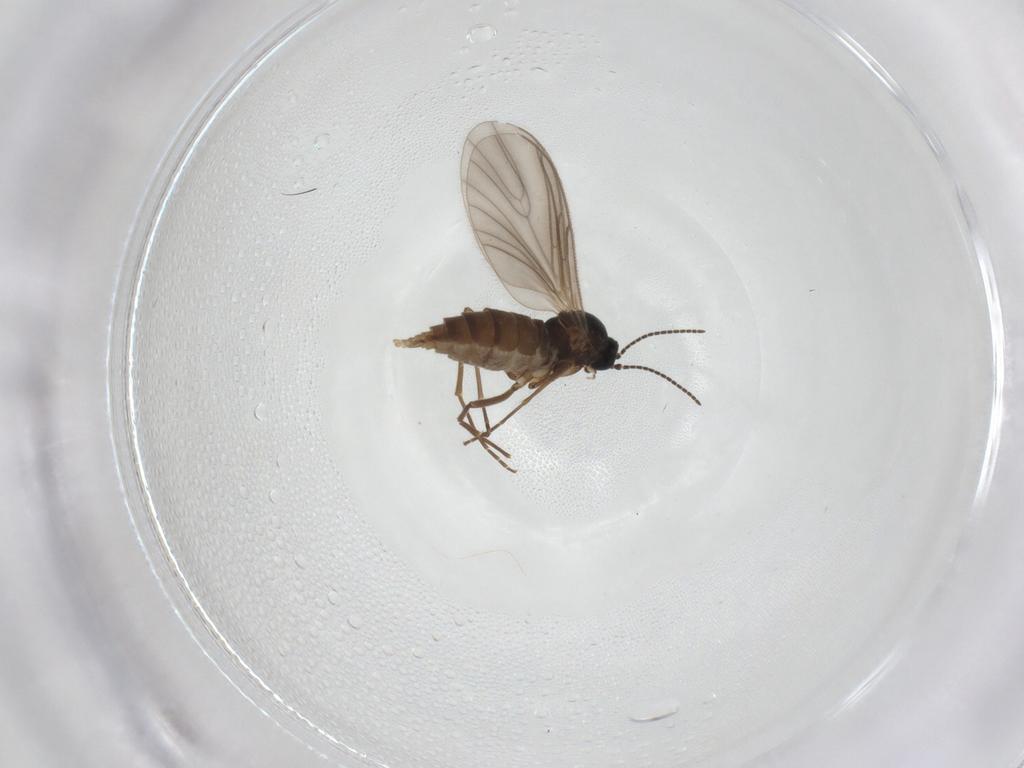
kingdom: Animalia
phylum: Arthropoda
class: Insecta
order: Diptera
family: Sciaridae
